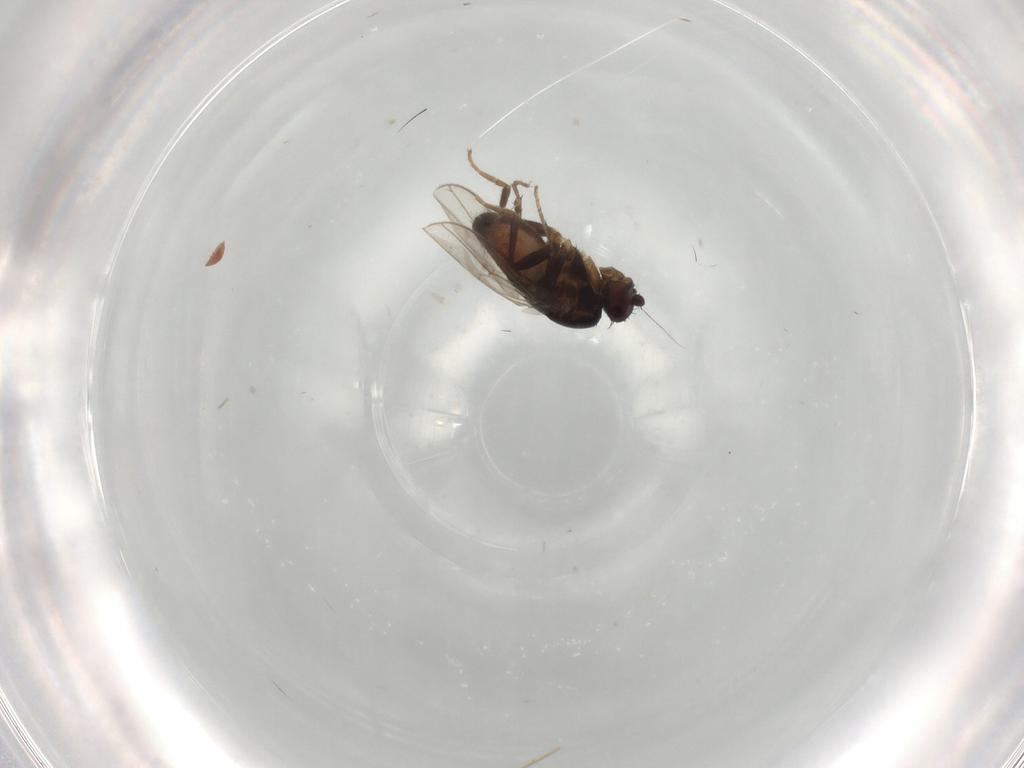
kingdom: Animalia
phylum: Arthropoda
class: Insecta
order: Diptera
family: Sphaeroceridae
